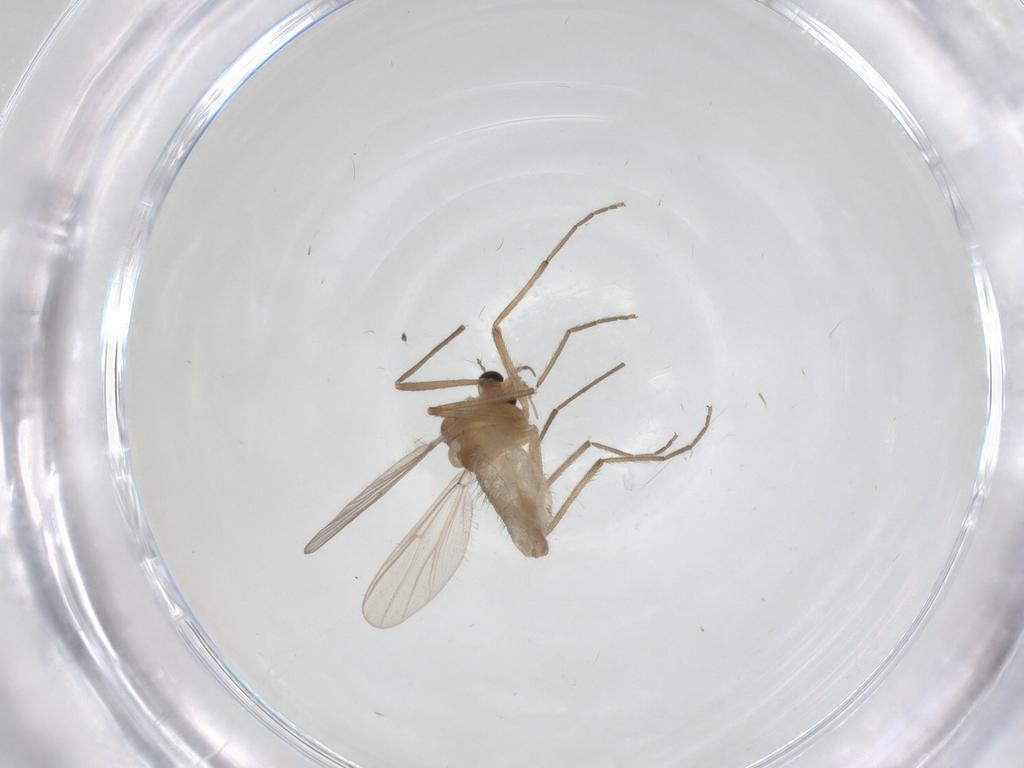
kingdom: Animalia
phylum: Arthropoda
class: Insecta
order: Diptera
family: Chironomidae
